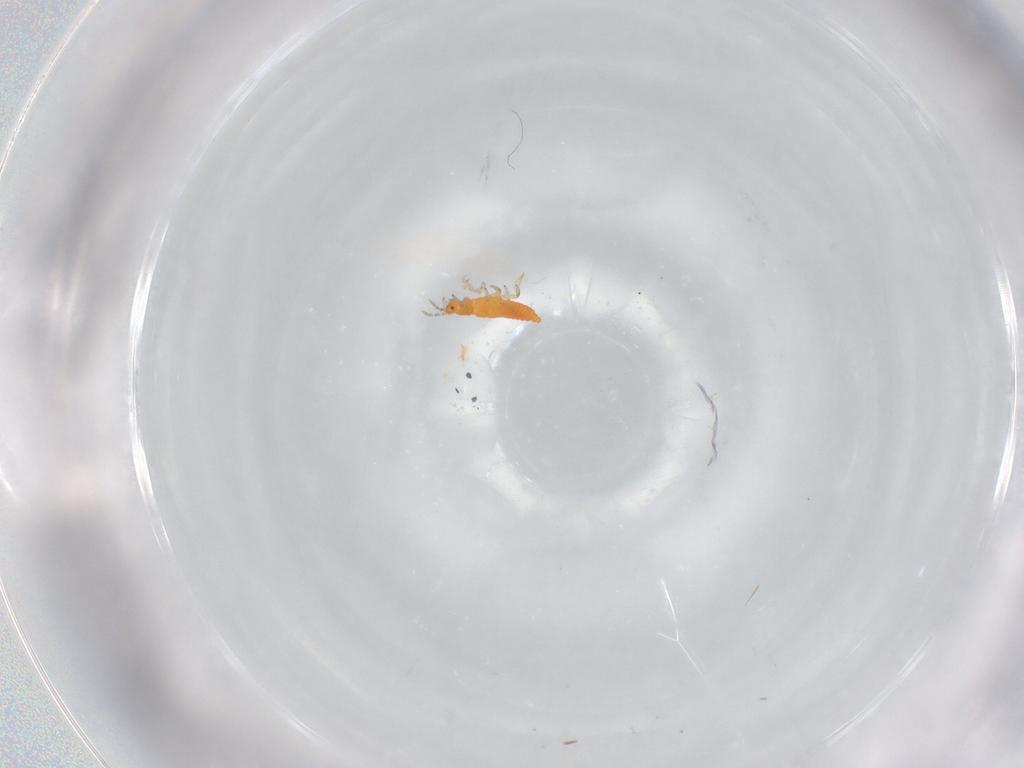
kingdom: Animalia
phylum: Arthropoda
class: Insecta
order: Thysanoptera
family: Aeolothripidae
